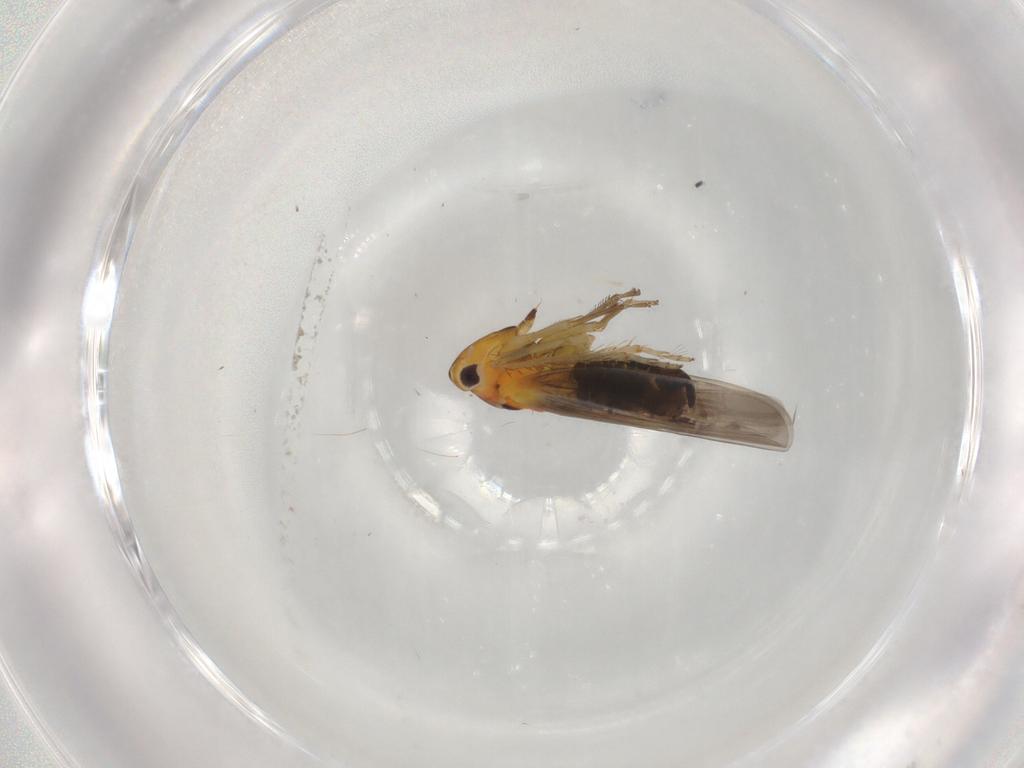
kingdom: Animalia
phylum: Arthropoda
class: Insecta
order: Hemiptera
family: Cicadellidae
